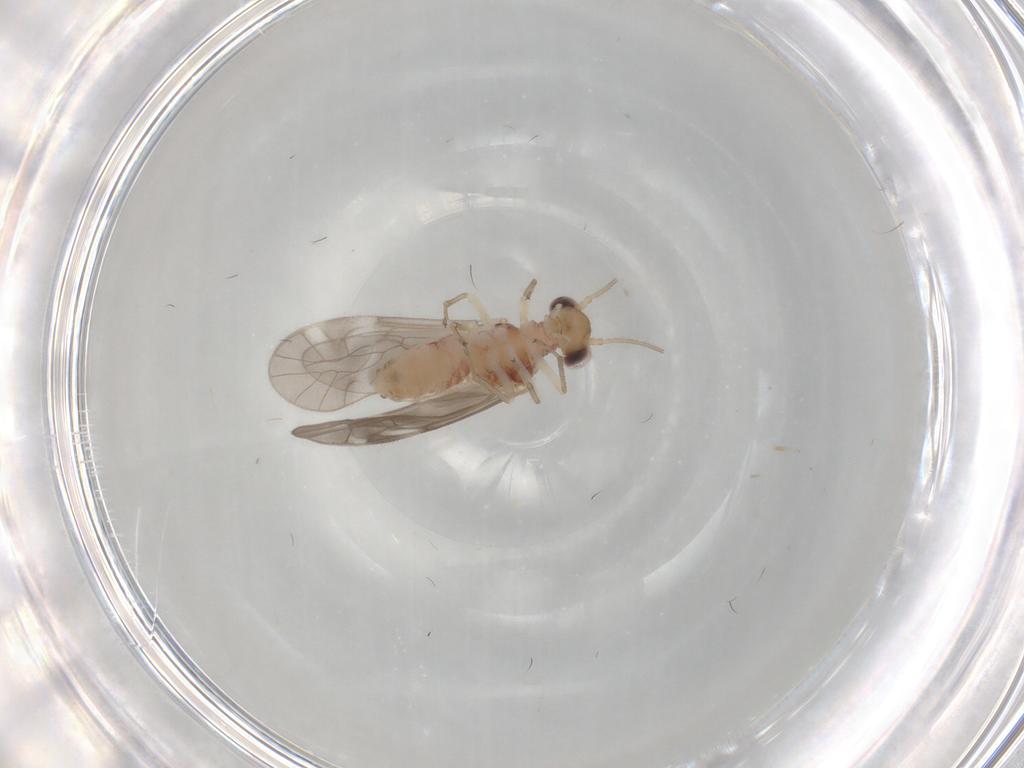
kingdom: Animalia
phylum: Arthropoda
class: Insecta
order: Psocodea
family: Caeciliusidae
